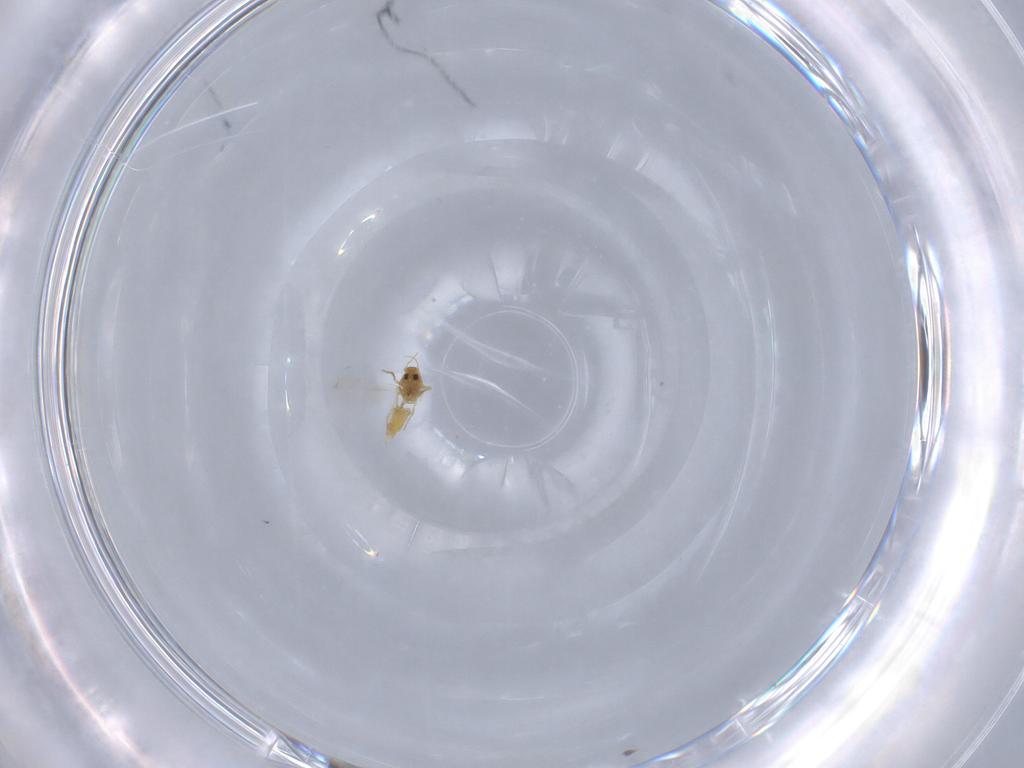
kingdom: Animalia
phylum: Arthropoda
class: Insecta
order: Hemiptera
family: Aleyrodidae
